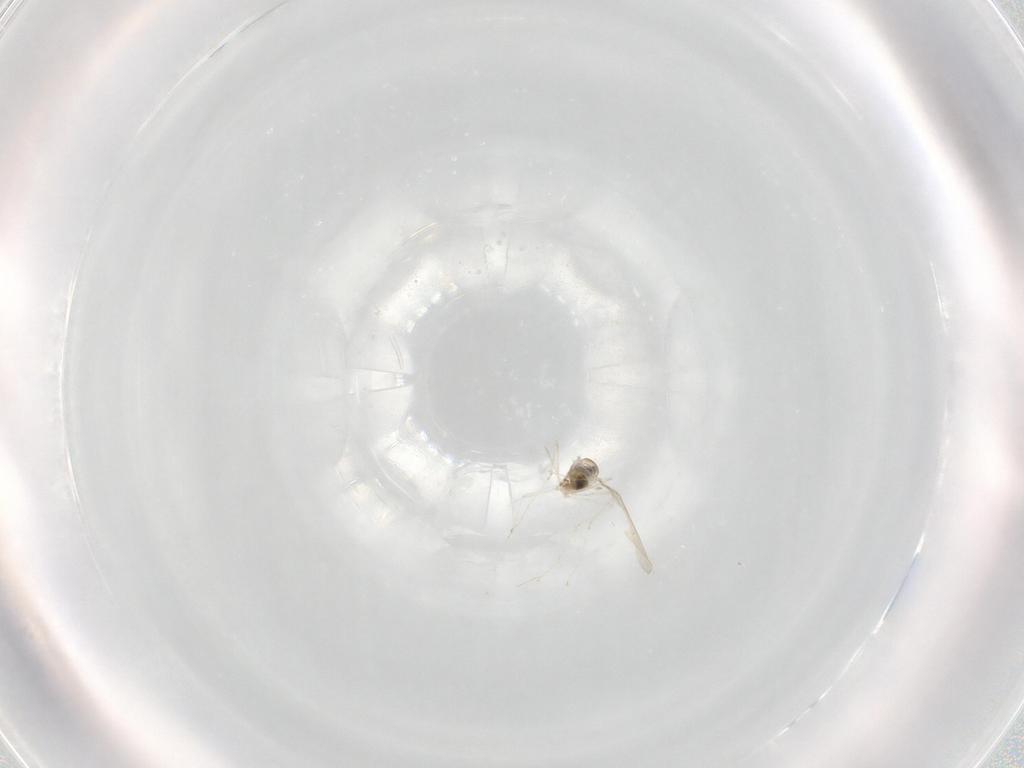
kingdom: Animalia
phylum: Arthropoda
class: Insecta
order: Diptera
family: Cecidomyiidae
